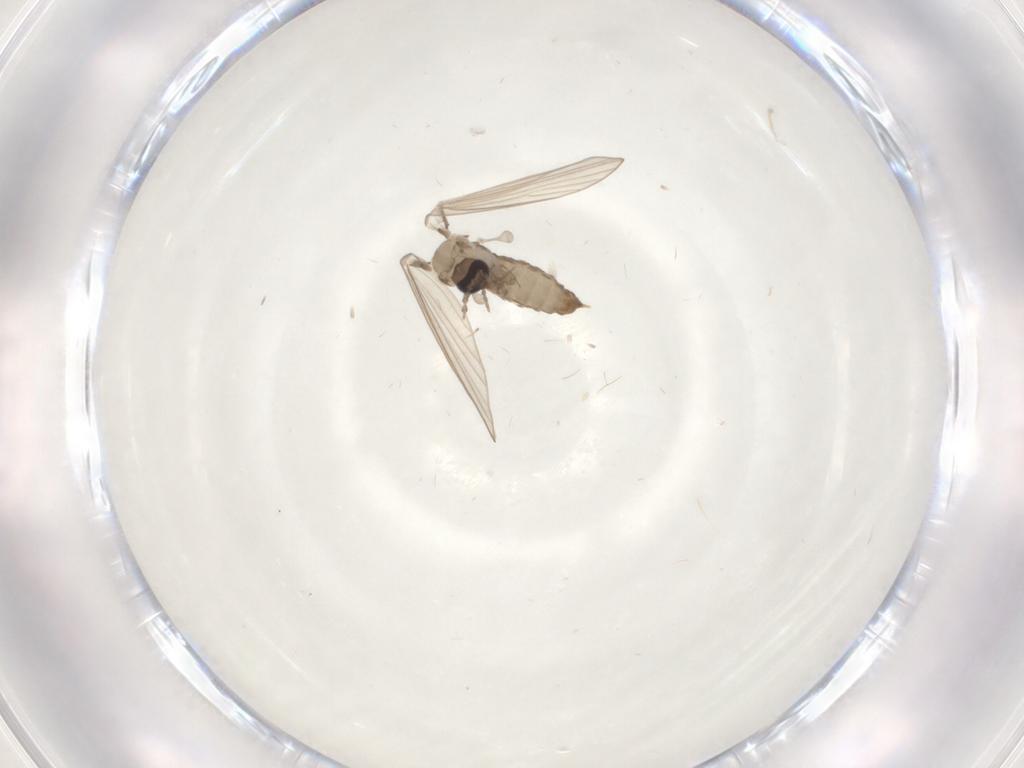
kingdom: Animalia
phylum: Arthropoda
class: Insecta
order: Diptera
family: Psychodidae
